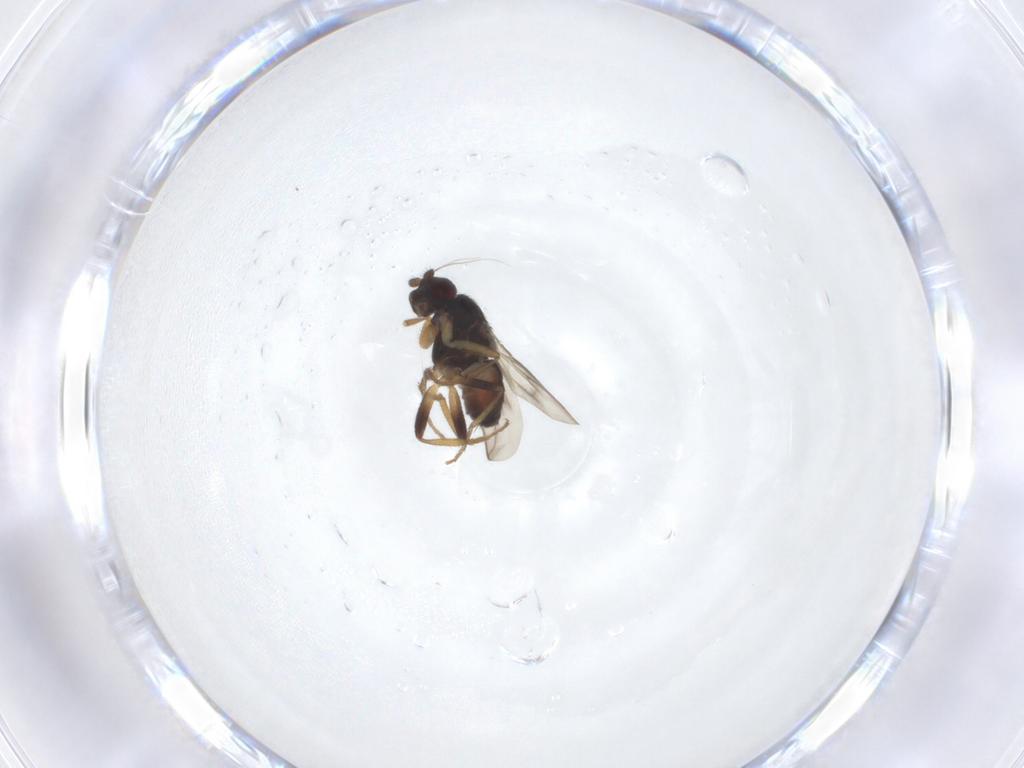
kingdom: Animalia
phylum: Arthropoda
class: Insecta
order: Diptera
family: Sphaeroceridae
